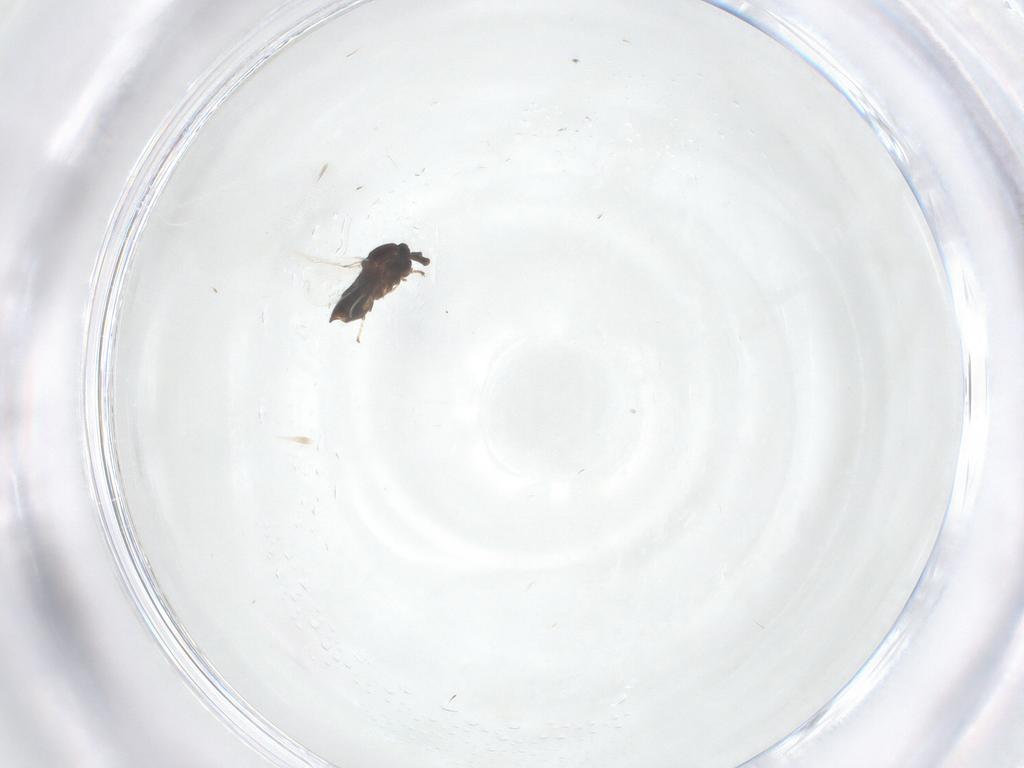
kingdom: Animalia
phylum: Arthropoda
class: Insecta
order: Diptera
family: Scatopsidae
